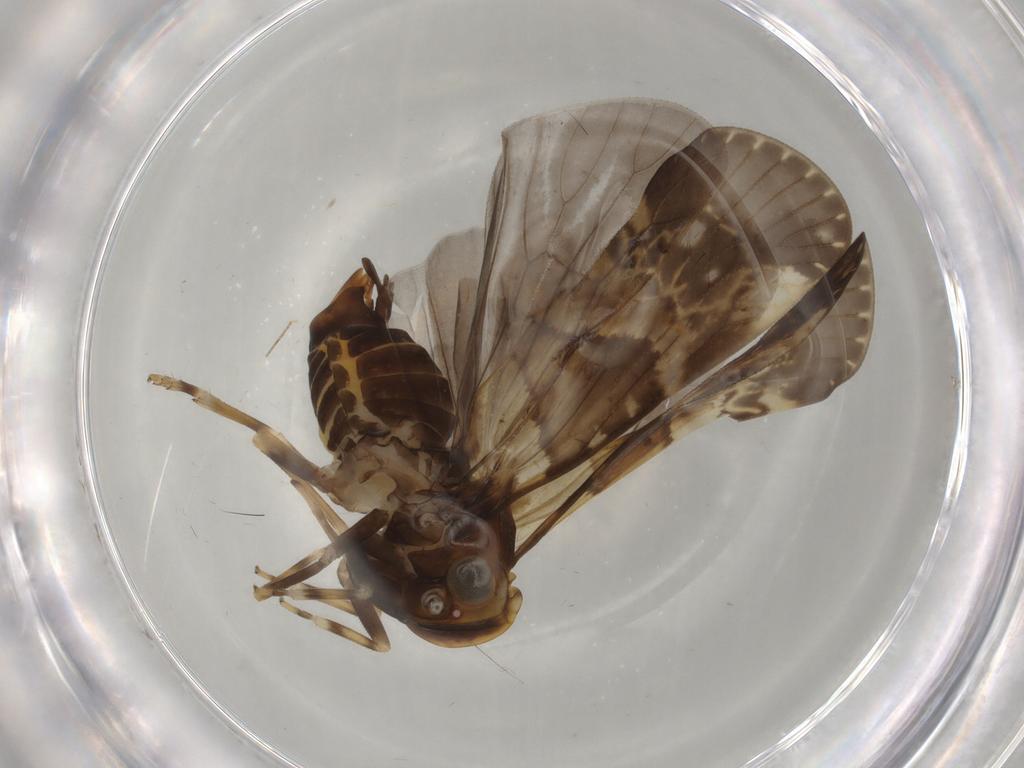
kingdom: Animalia
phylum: Arthropoda
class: Insecta
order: Hemiptera
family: Cixiidae
